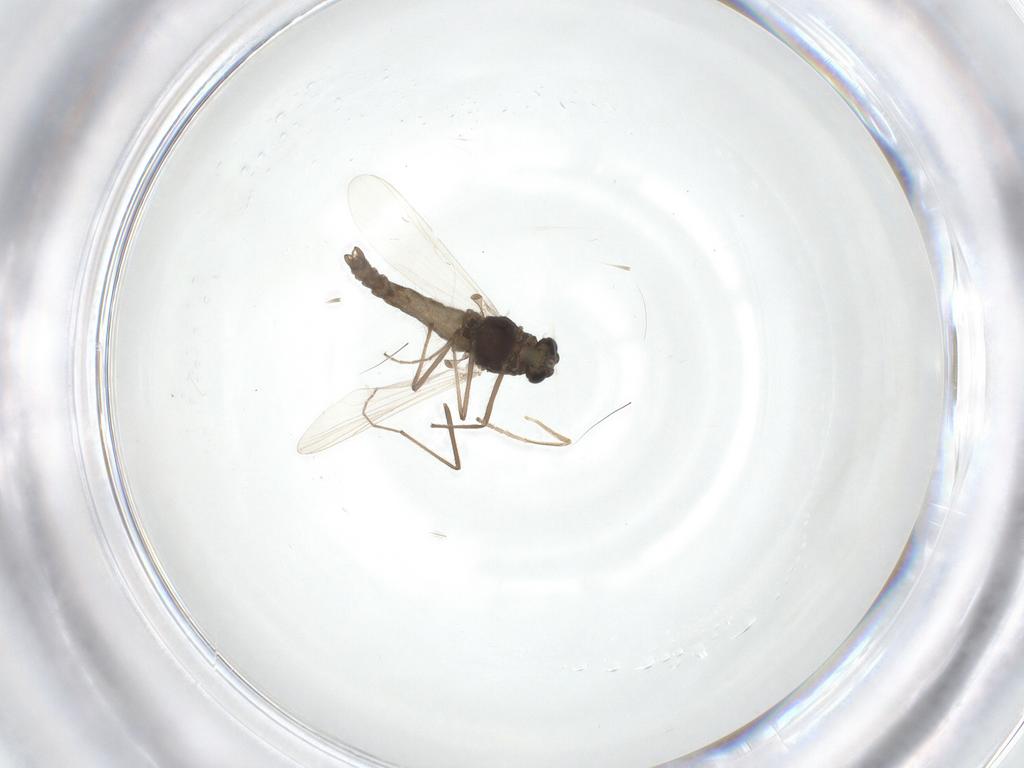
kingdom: Animalia
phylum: Arthropoda
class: Insecta
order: Diptera
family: Chironomidae
